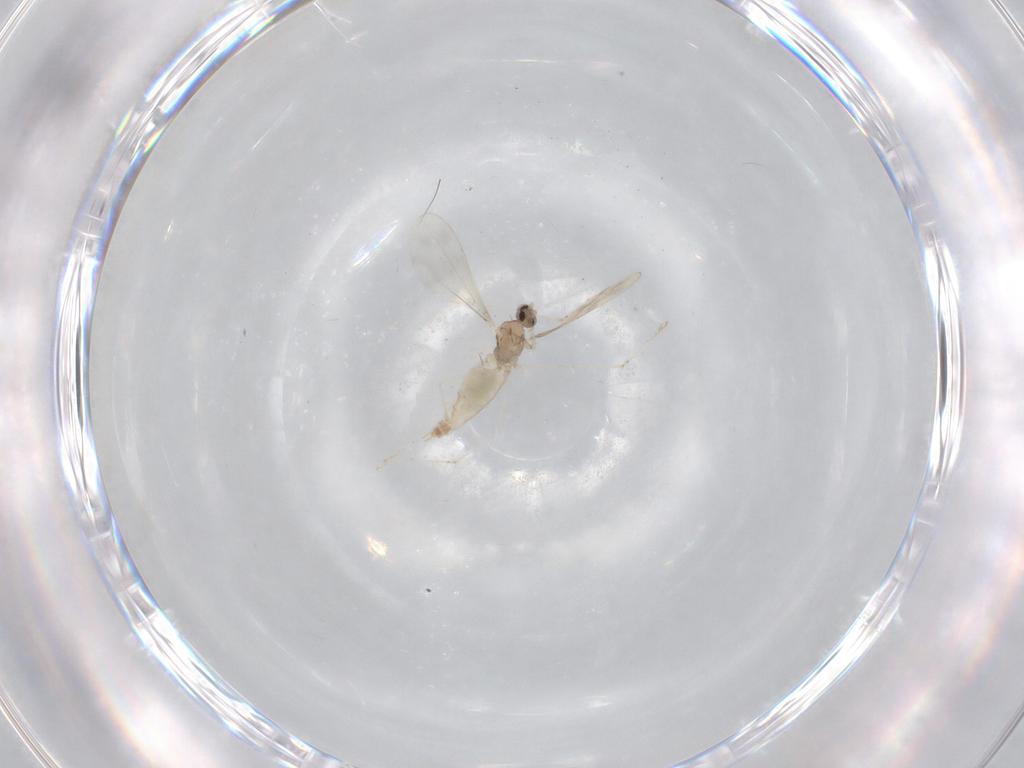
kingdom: Animalia
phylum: Arthropoda
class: Insecta
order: Diptera
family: Cecidomyiidae
